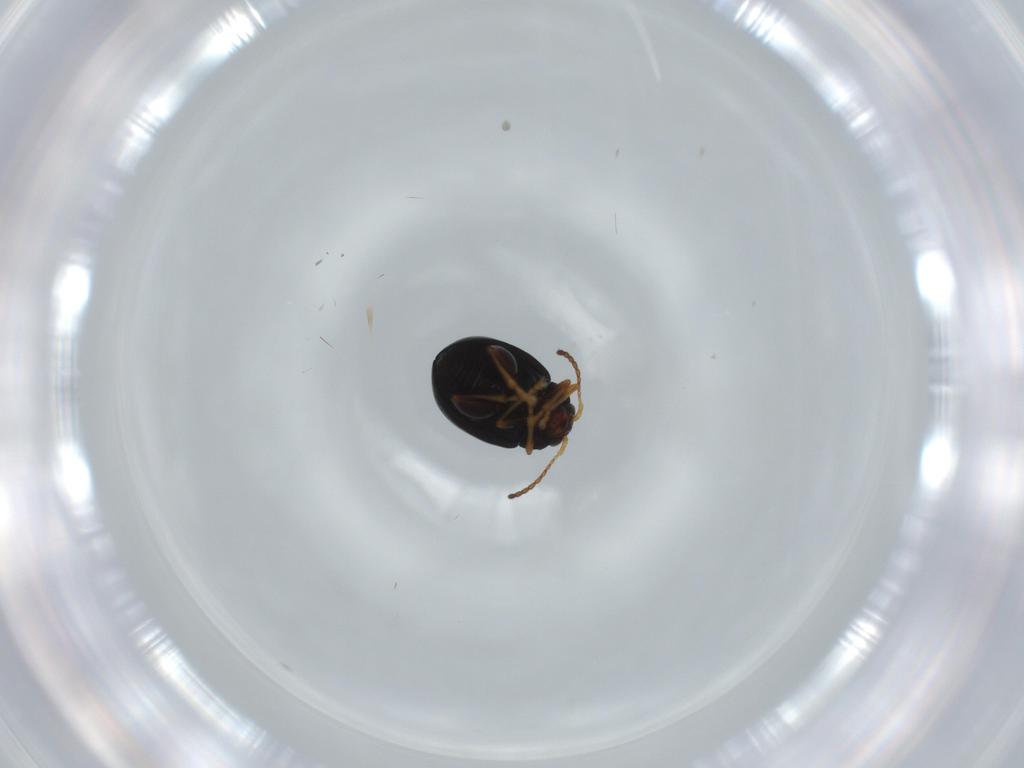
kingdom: Animalia
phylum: Arthropoda
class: Insecta
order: Coleoptera
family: Chrysomelidae
